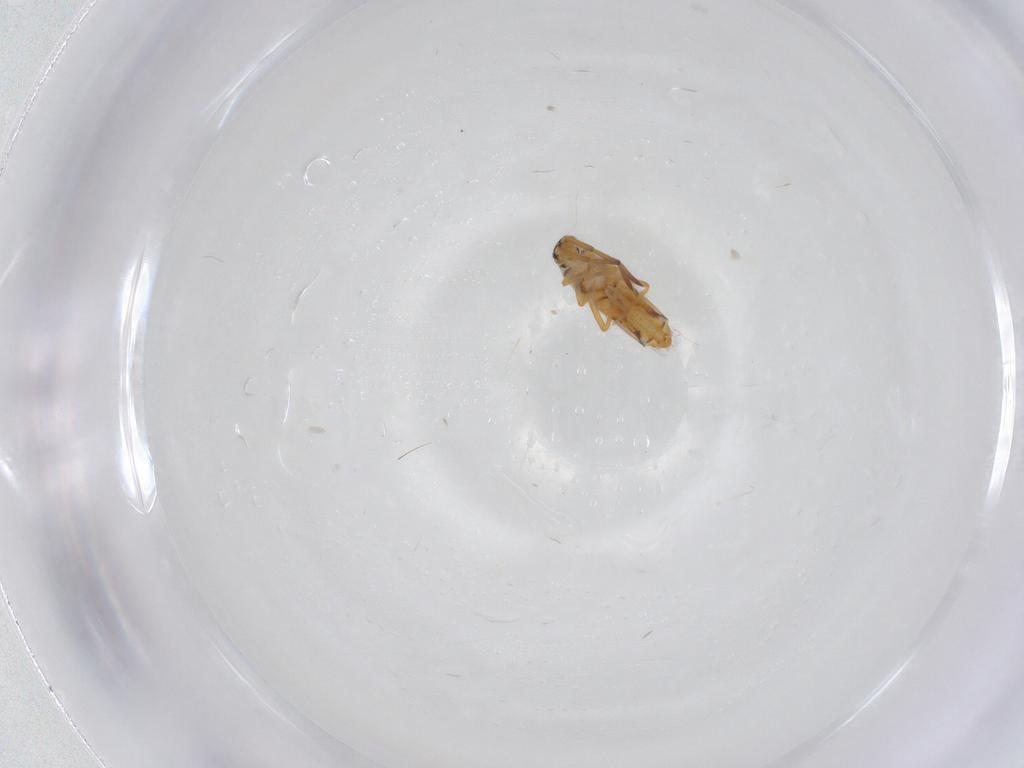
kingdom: Animalia
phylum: Arthropoda
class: Collembola
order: Entomobryomorpha
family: Entomobryidae
